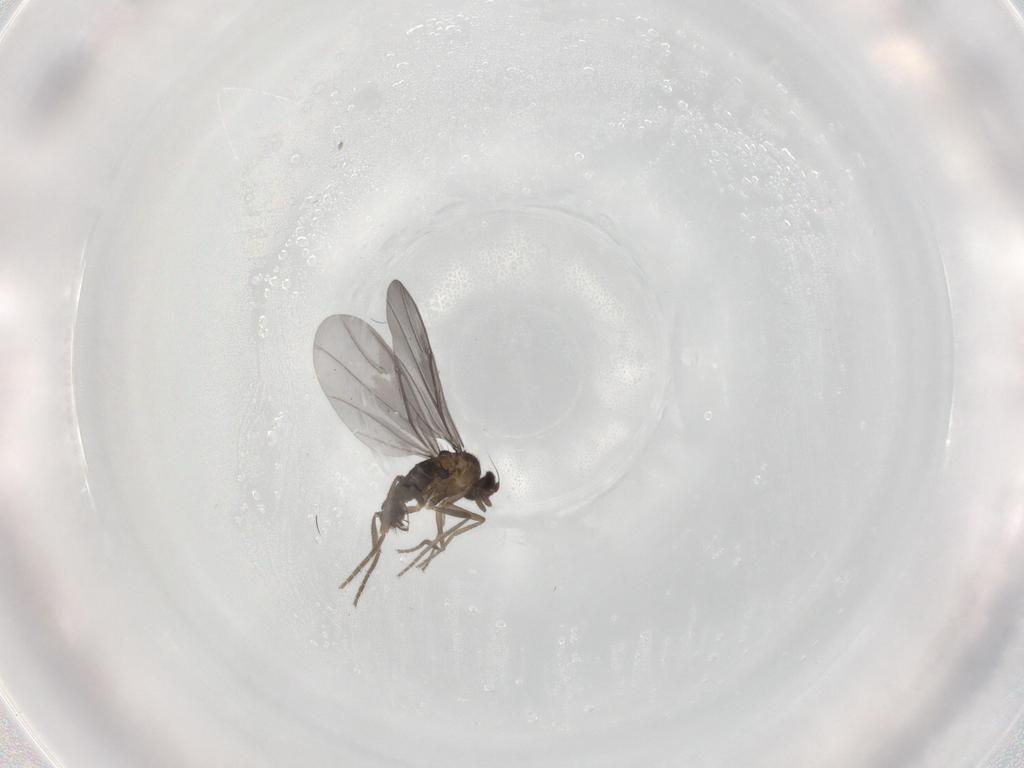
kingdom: Animalia
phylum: Arthropoda
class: Insecta
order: Diptera
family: Phoridae
